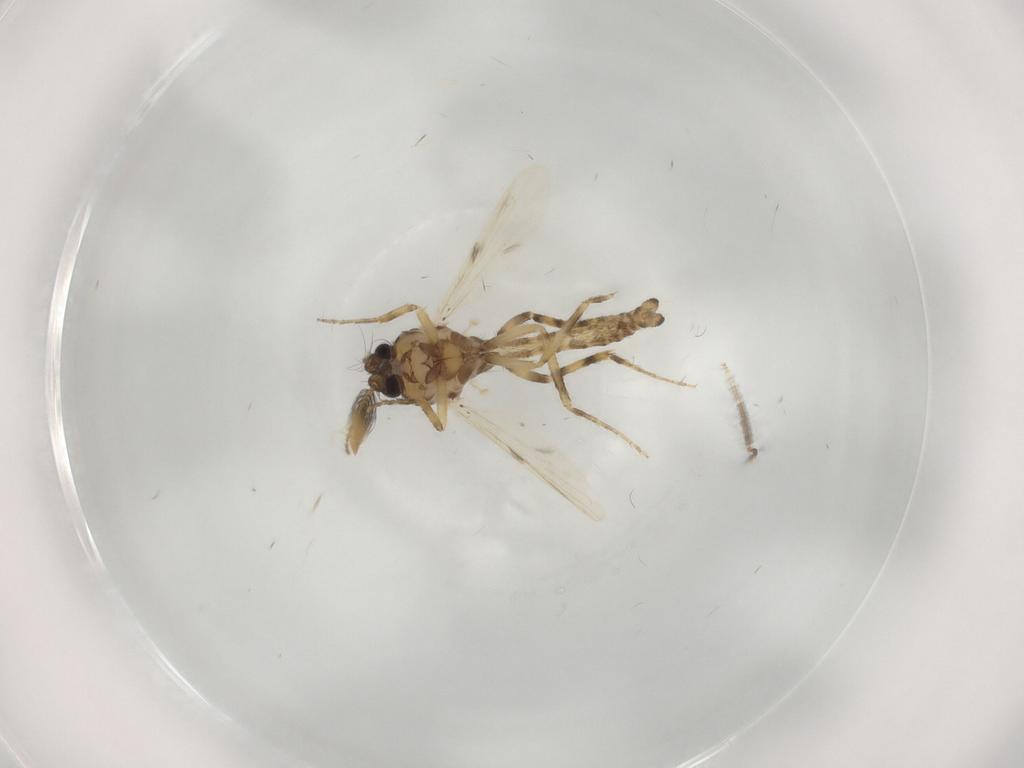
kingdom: Animalia
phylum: Arthropoda
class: Insecta
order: Diptera
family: Ceratopogonidae
